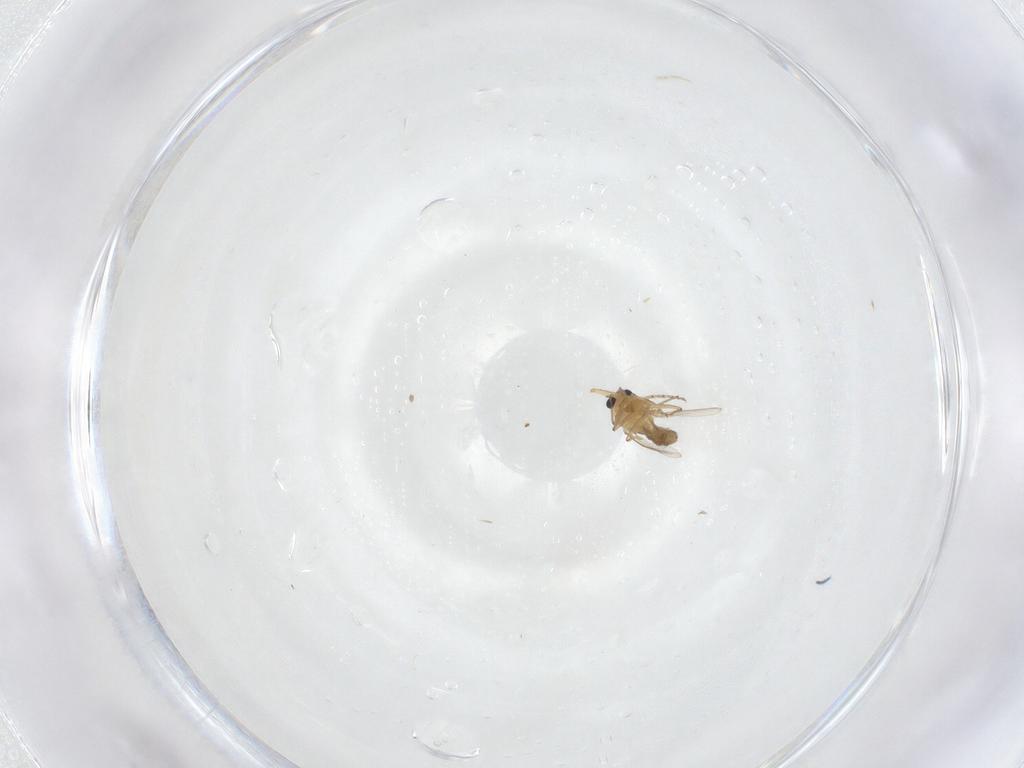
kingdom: Animalia
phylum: Arthropoda
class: Insecta
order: Diptera
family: Chironomidae
